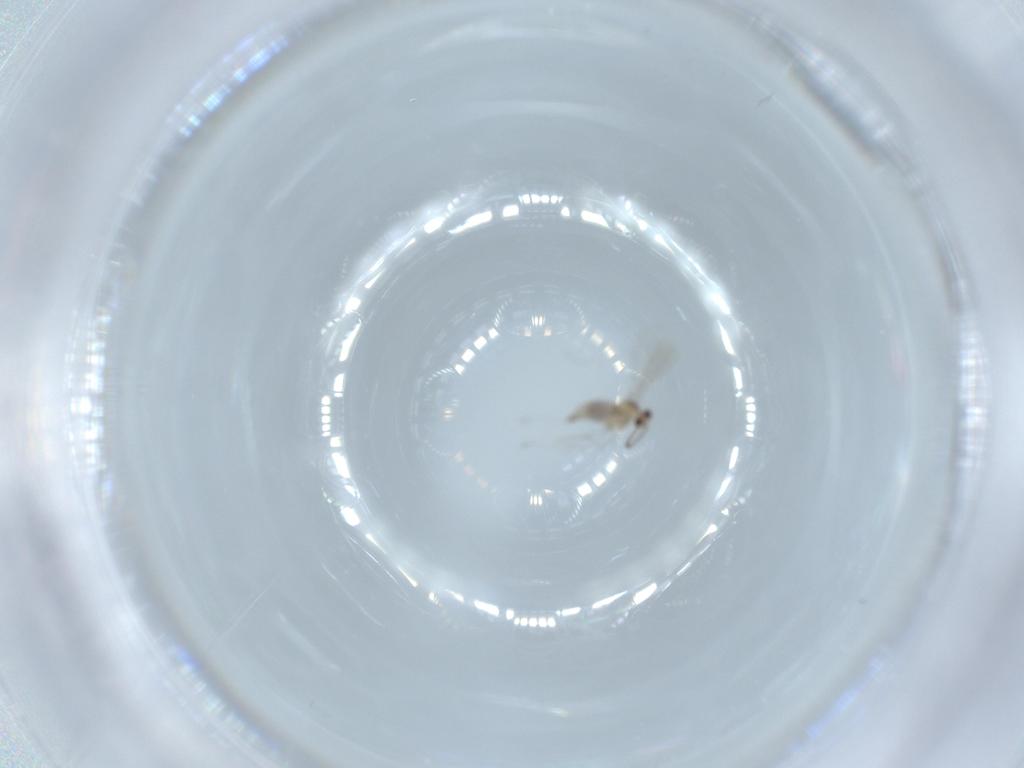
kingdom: Animalia
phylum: Arthropoda
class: Insecta
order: Diptera
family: Cecidomyiidae
